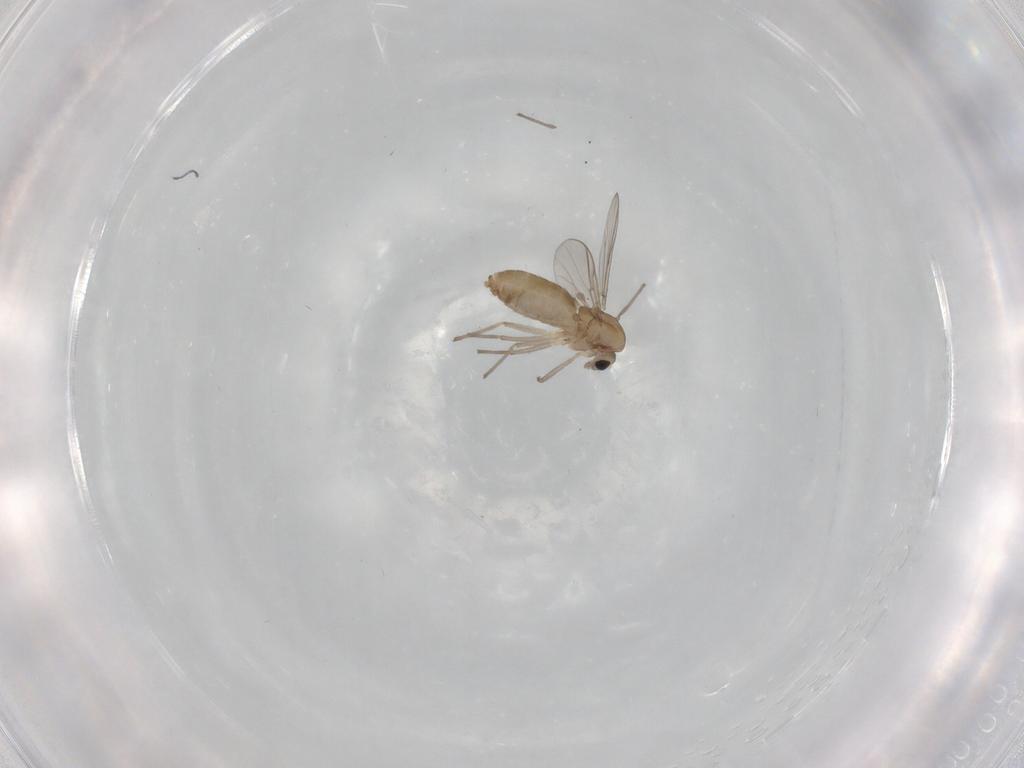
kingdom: Animalia
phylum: Arthropoda
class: Insecta
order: Diptera
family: Chironomidae
